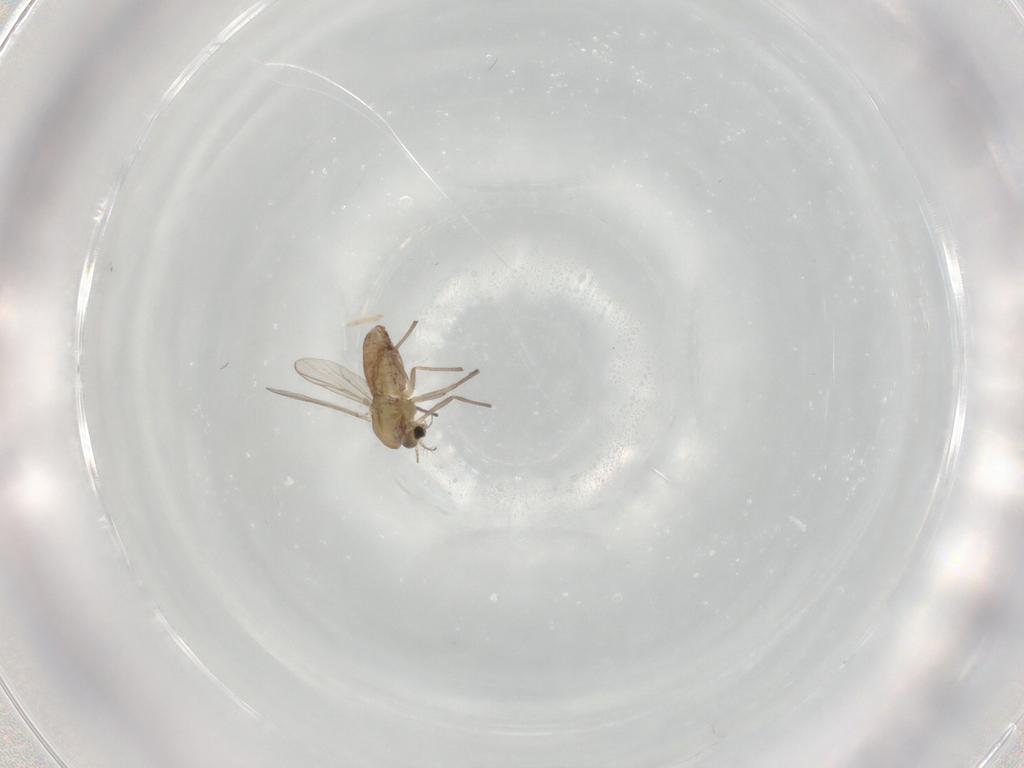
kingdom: Animalia
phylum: Arthropoda
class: Insecta
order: Diptera
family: Chironomidae
